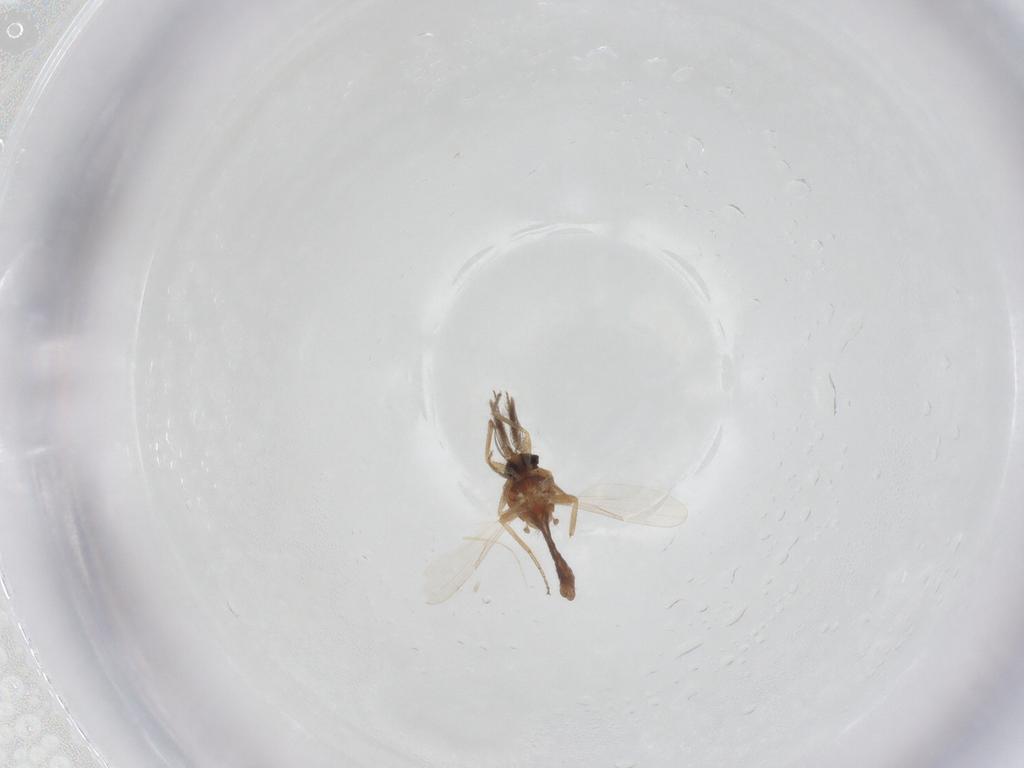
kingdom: Animalia
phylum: Arthropoda
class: Insecta
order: Diptera
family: Ceratopogonidae
